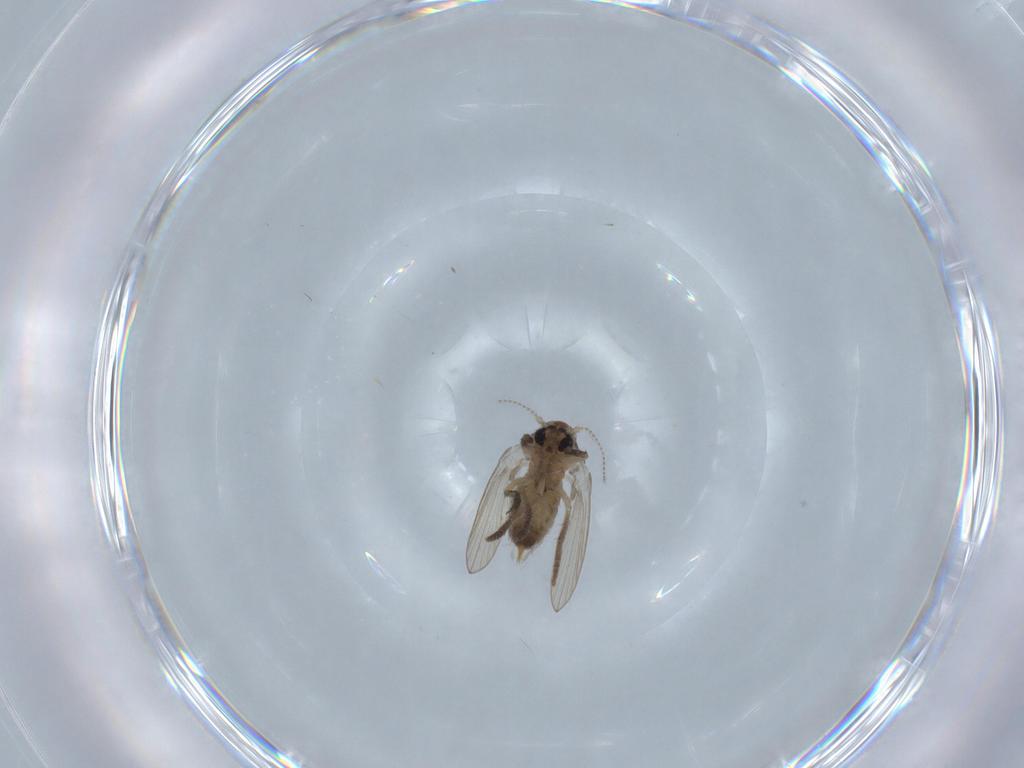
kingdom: Animalia
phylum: Arthropoda
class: Insecta
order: Diptera
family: Psychodidae
